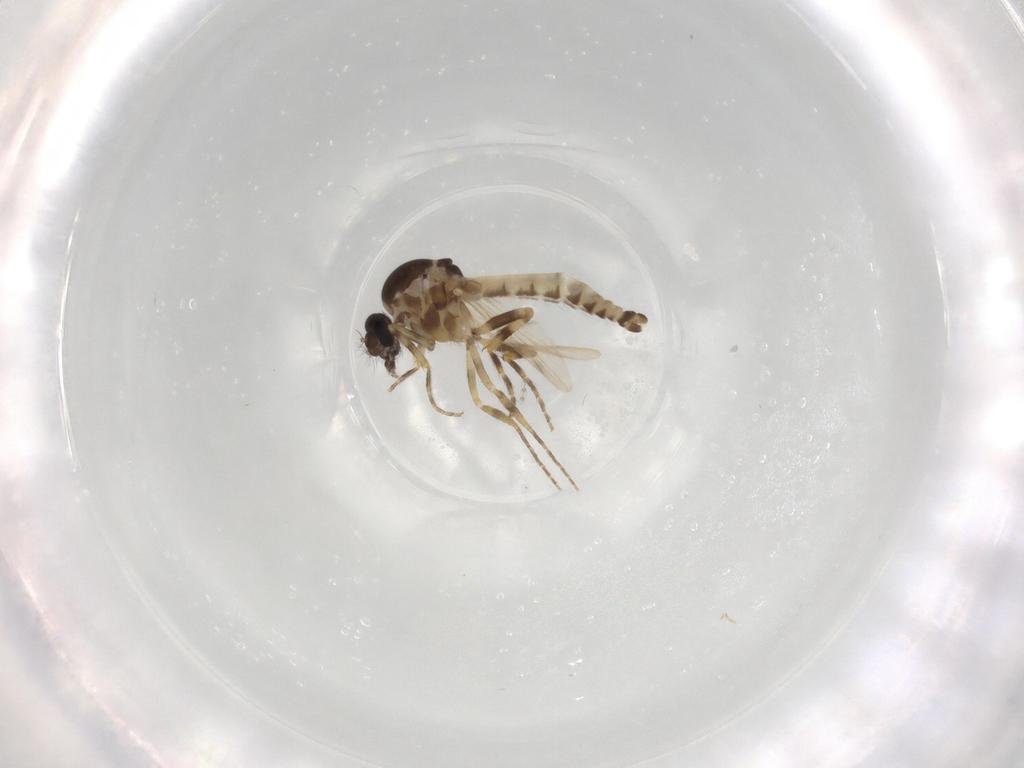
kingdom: Animalia
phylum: Arthropoda
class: Insecta
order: Diptera
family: Phoridae
